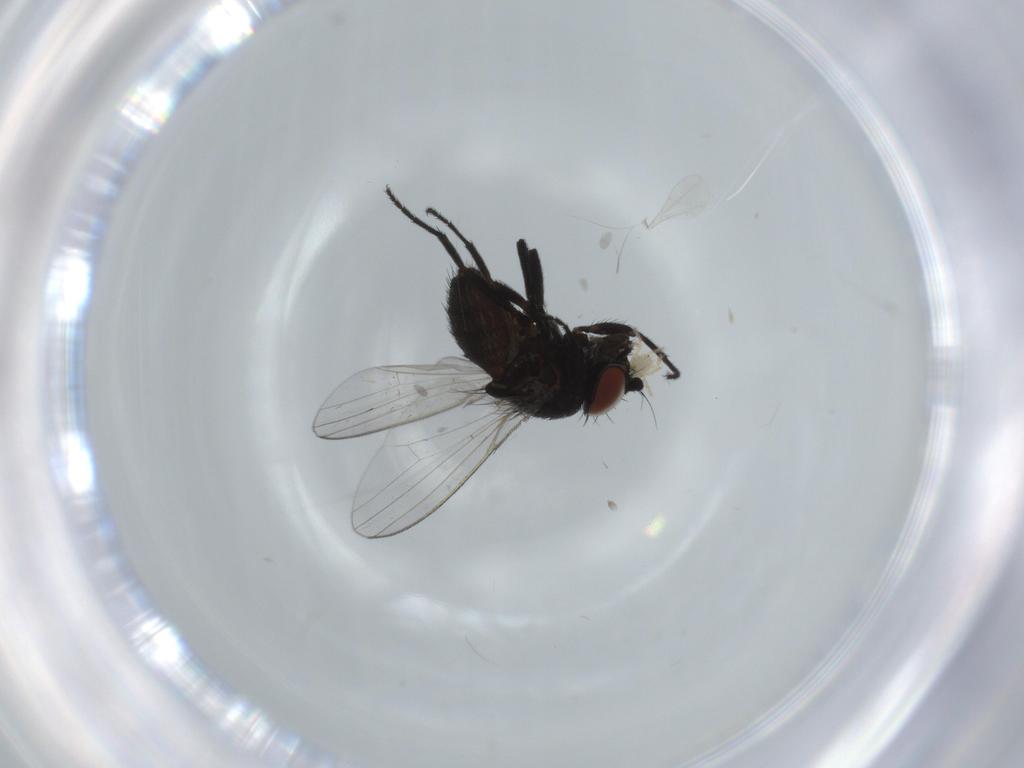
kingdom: Animalia
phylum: Arthropoda
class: Insecta
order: Diptera
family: Cecidomyiidae
